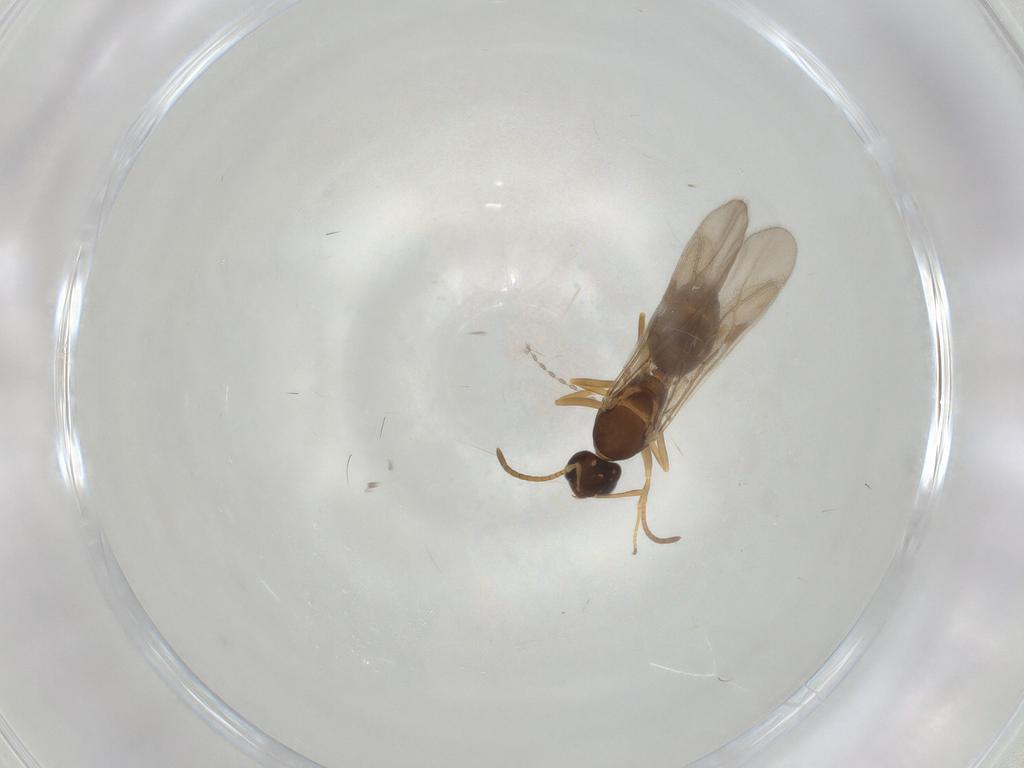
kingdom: Animalia
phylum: Arthropoda
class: Insecta
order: Hymenoptera
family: Formicidae
